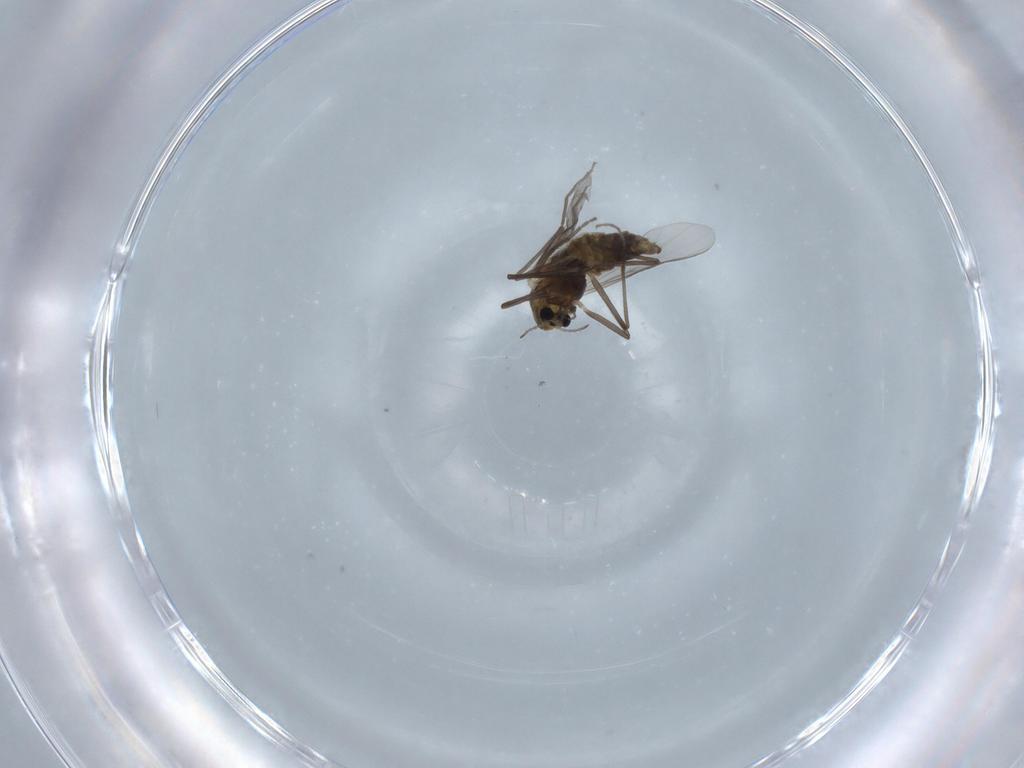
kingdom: Animalia
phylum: Arthropoda
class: Insecta
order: Diptera
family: Chironomidae
